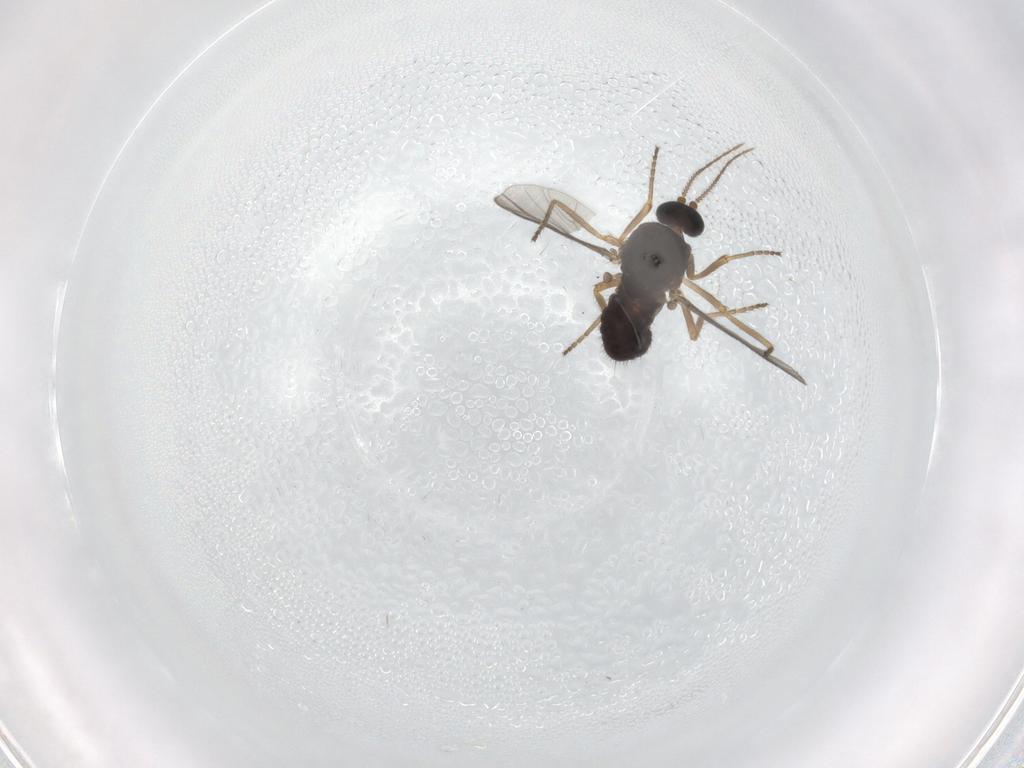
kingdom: Animalia
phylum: Arthropoda
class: Insecta
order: Diptera
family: Ceratopogonidae
